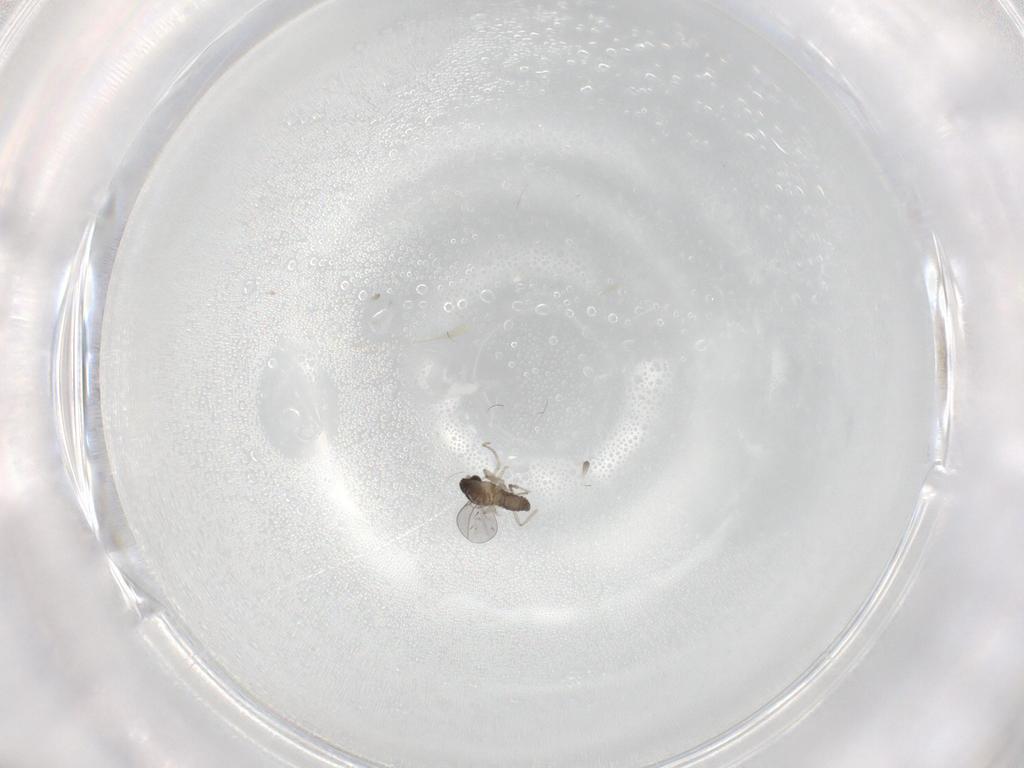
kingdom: Animalia
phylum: Arthropoda
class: Insecta
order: Diptera
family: Cecidomyiidae
